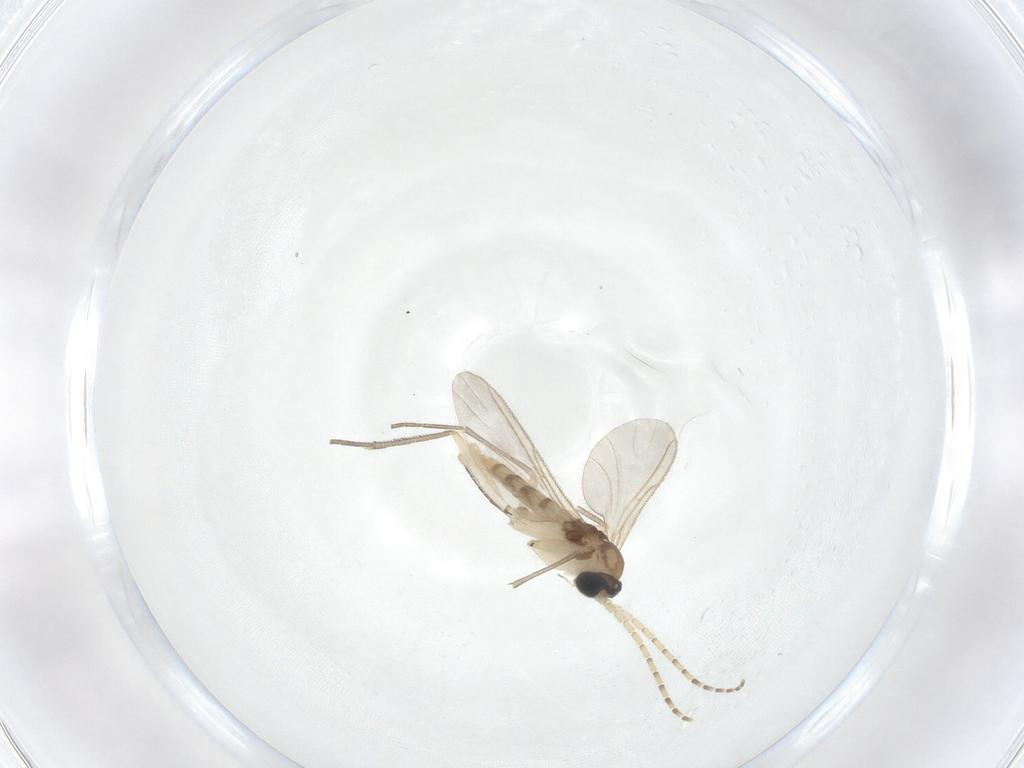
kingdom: Animalia
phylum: Arthropoda
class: Insecta
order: Diptera
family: Sciaridae
